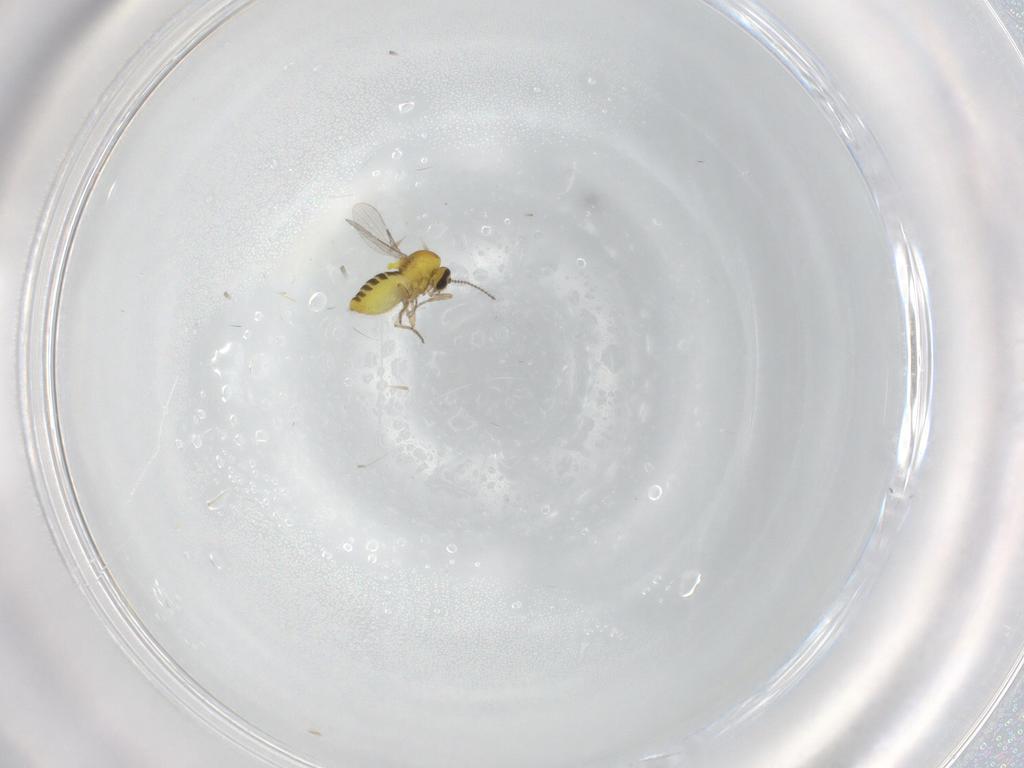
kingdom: Animalia
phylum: Arthropoda
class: Insecta
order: Diptera
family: Ceratopogonidae
